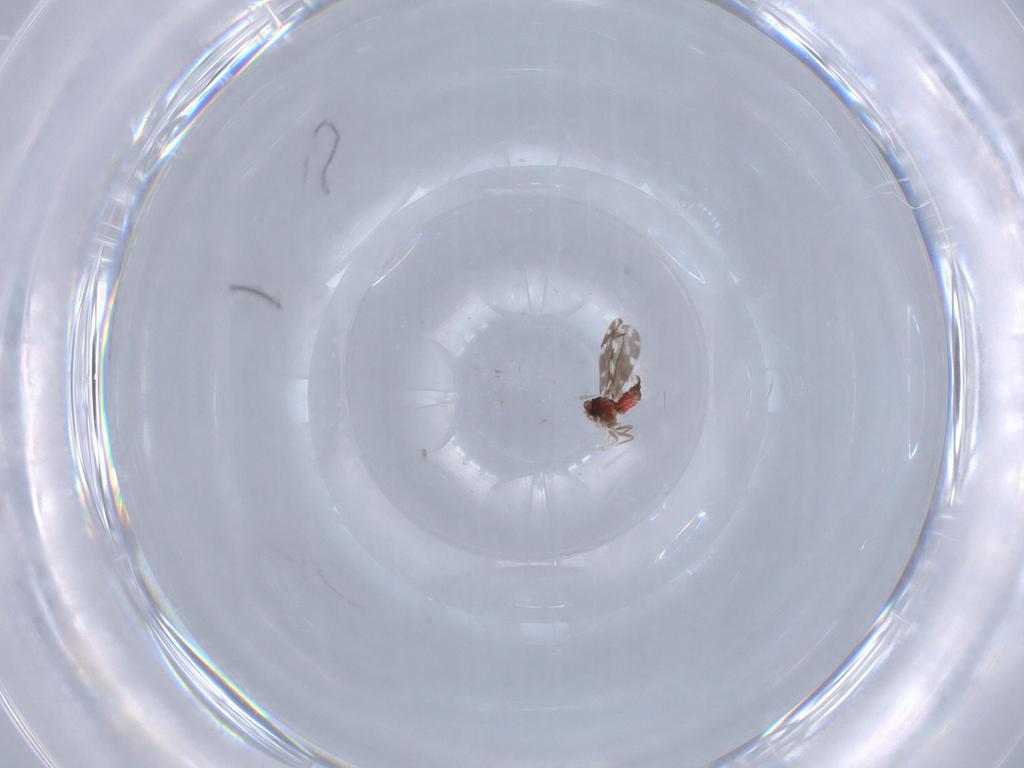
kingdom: Animalia
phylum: Arthropoda
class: Insecta
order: Hemiptera
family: Aleyrodidae
